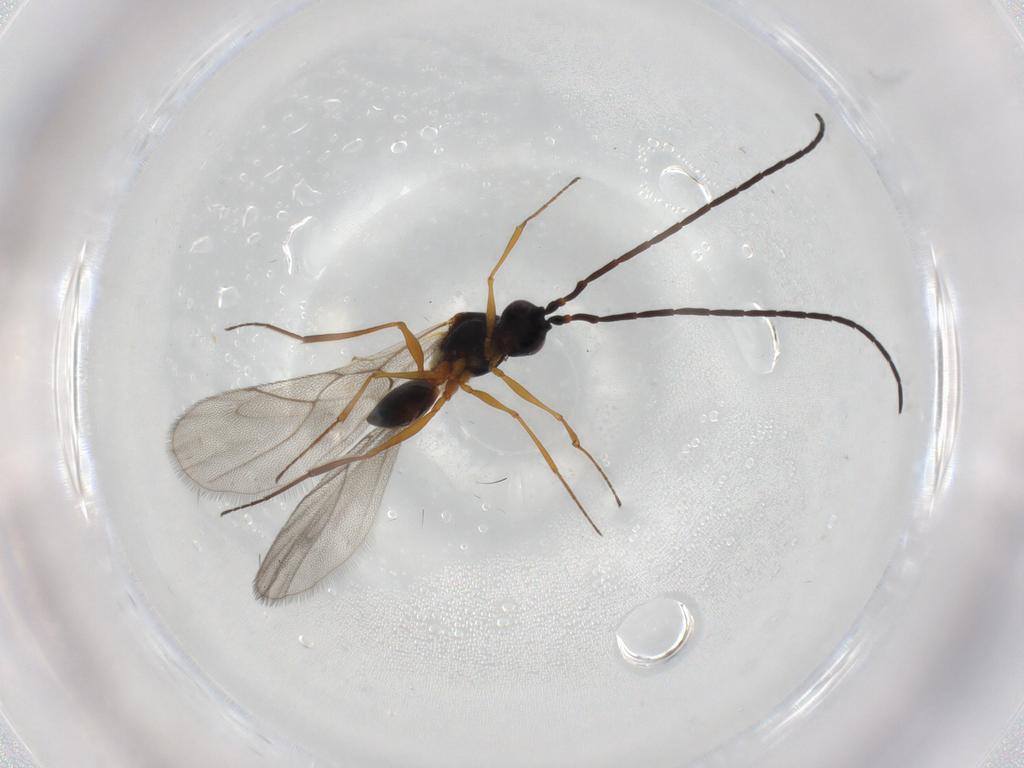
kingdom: Animalia
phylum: Arthropoda
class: Insecta
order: Hymenoptera
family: Figitidae
